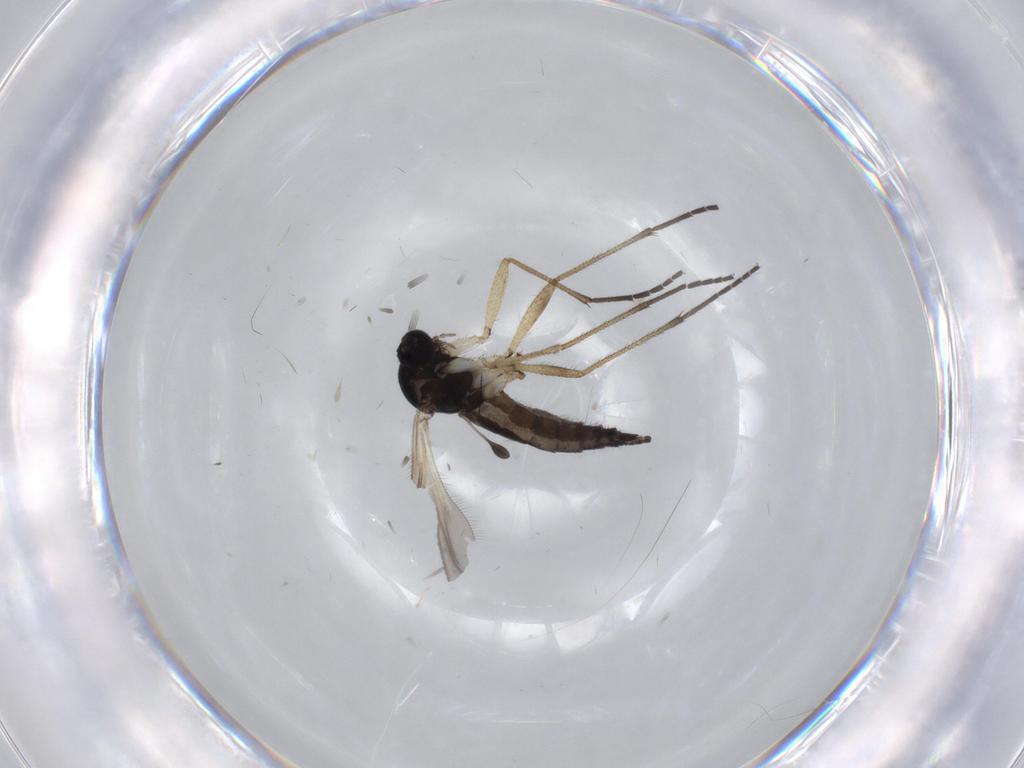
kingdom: Animalia
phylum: Arthropoda
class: Insecta
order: Diptera
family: Sciaridae
